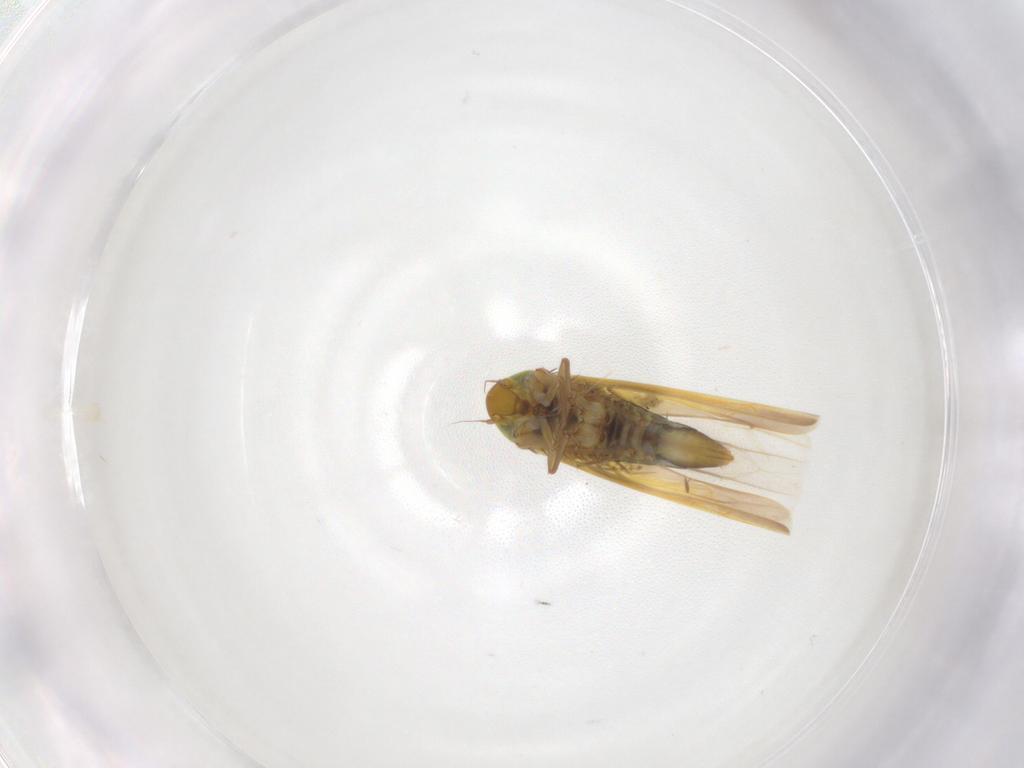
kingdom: Animalia
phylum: Arthropoda
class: Insecta
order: Hemiptera
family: Cicadellidae
